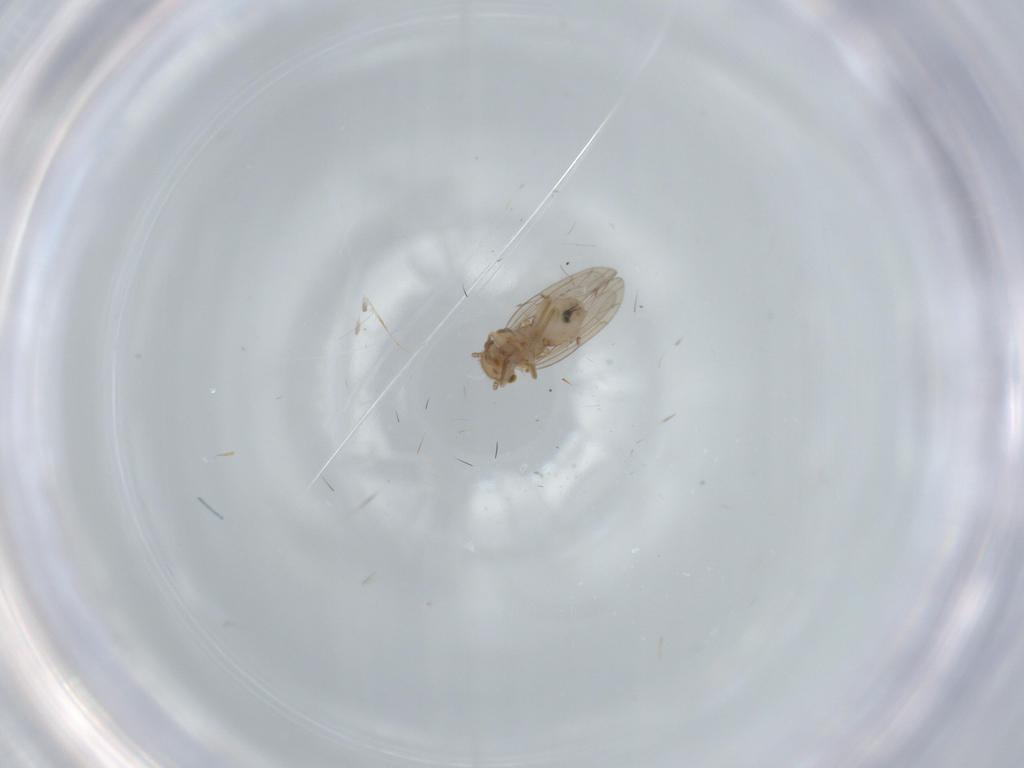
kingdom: Animalia
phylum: Arthropoda
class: Insecta
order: Psocodea
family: Ectopsocidae
